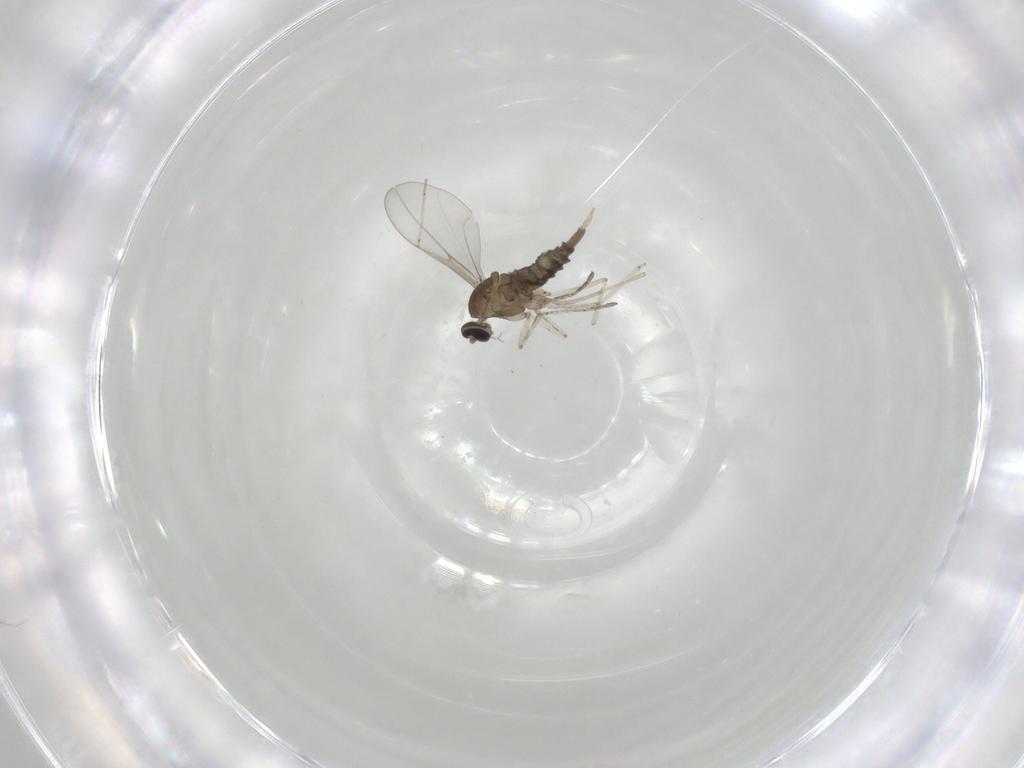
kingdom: Animalia
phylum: Arthropoda
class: Insecta
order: Diptera
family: Cecidomyiidae
